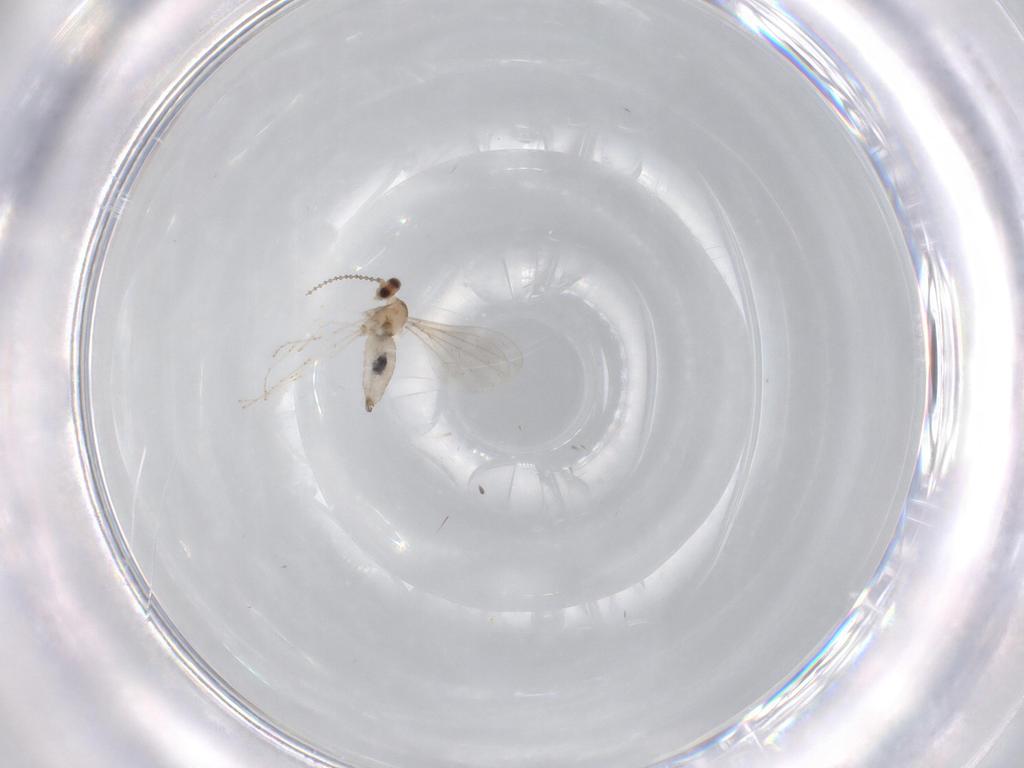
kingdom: Animalia
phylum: Arthropoda
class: Insecta
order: Diptera
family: Cecidomyiidae
